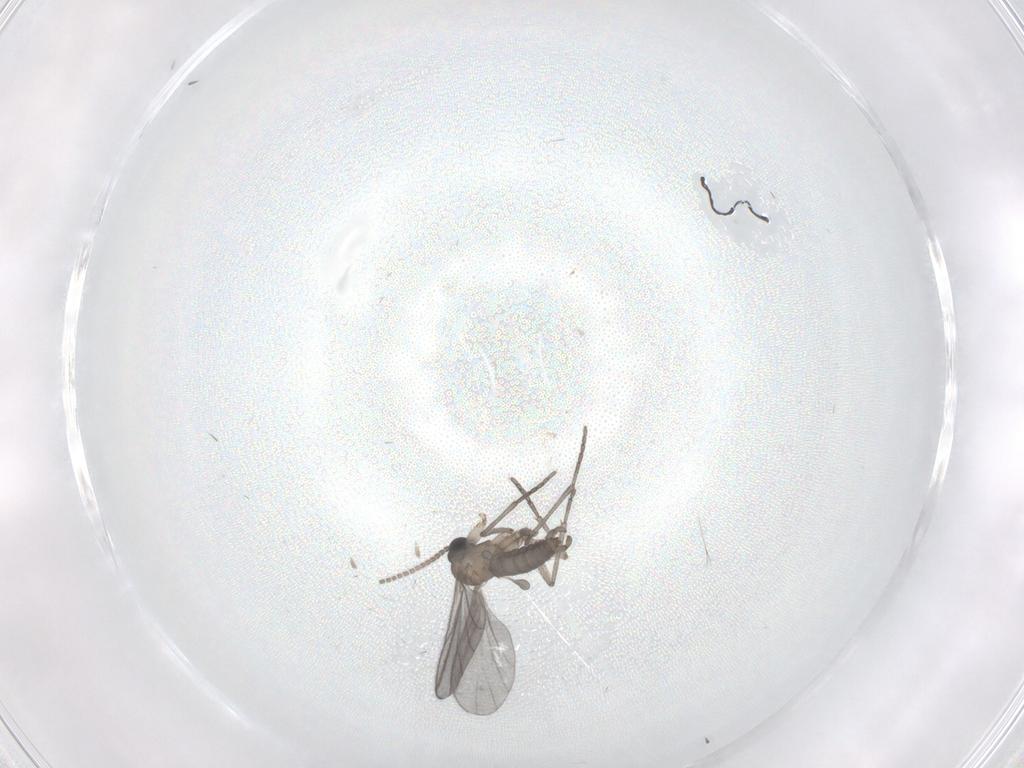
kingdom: Animalia
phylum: Arthropoda
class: Insecta
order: Diptera
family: Sciaridae
